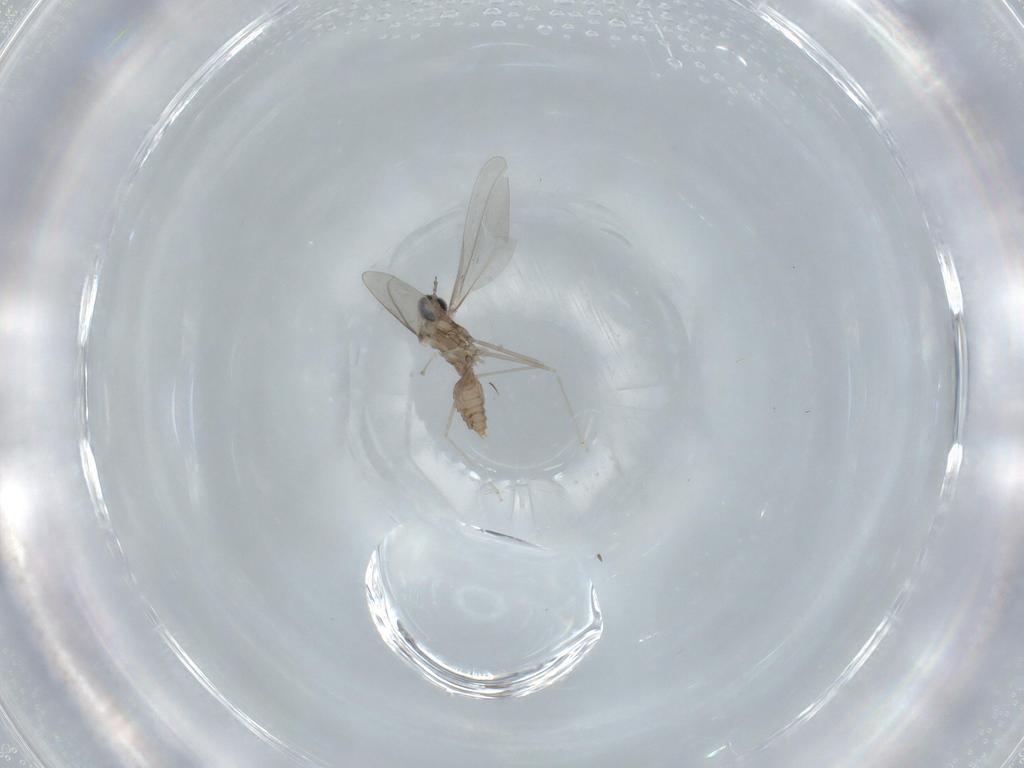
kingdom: Animalia
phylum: Arthropoda
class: Insecta
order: Diptera
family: Cecidomyiidae
